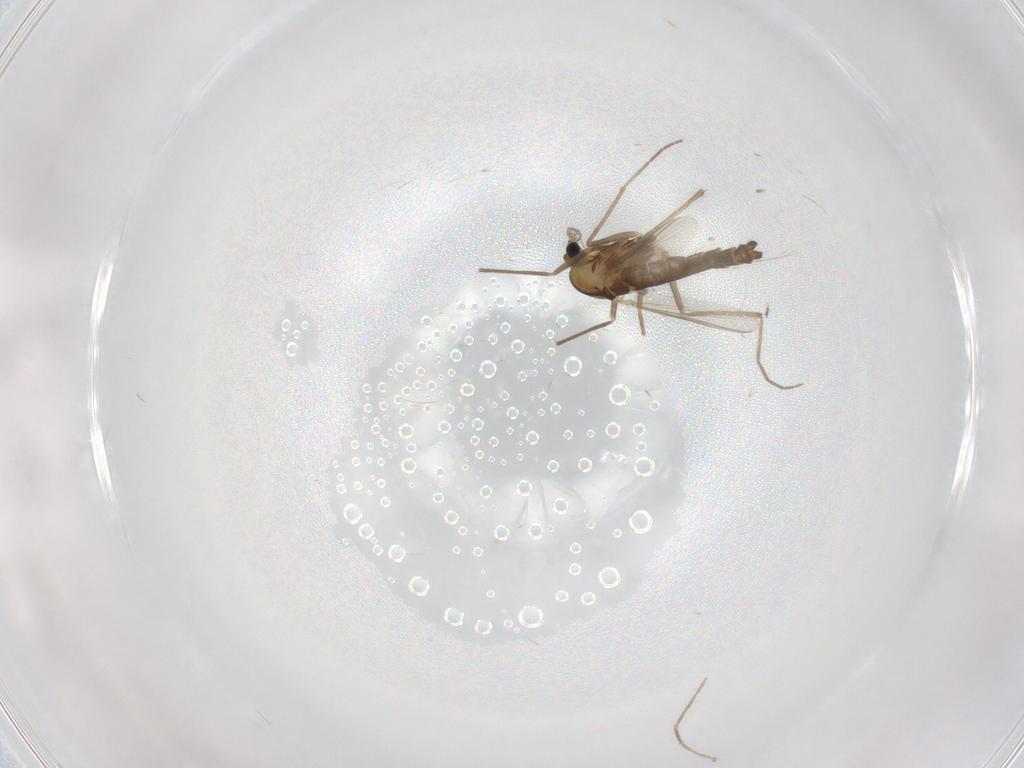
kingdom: Animalia
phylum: Arthropoda
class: Insecta
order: Diptera
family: Chironomidae
